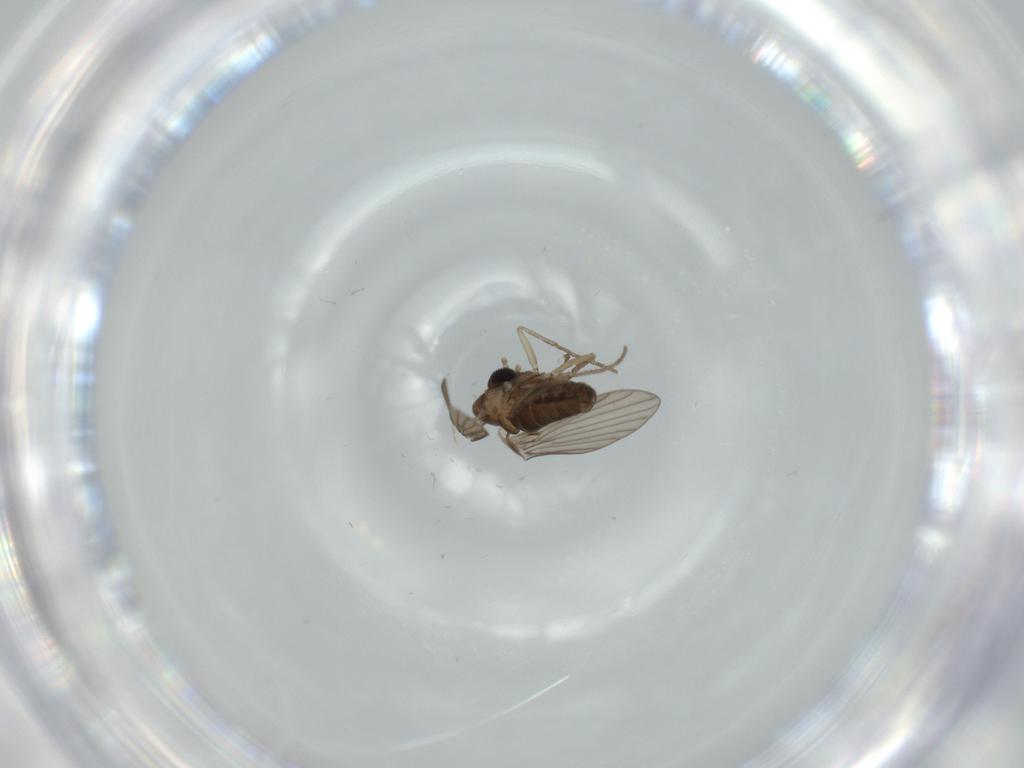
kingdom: Animalia
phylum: Arthropoda
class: Insecta
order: Diptera
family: Psychodidae
